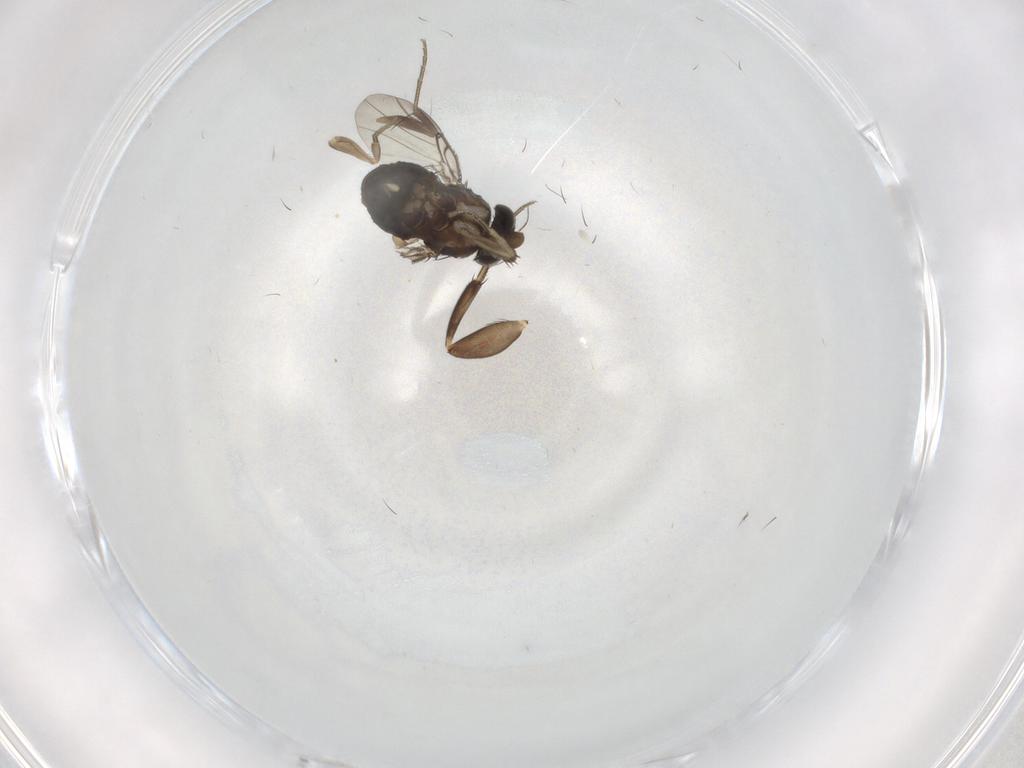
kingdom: Animalia
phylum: Arthropoda
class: Insecta
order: Diptera
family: Phoridae
